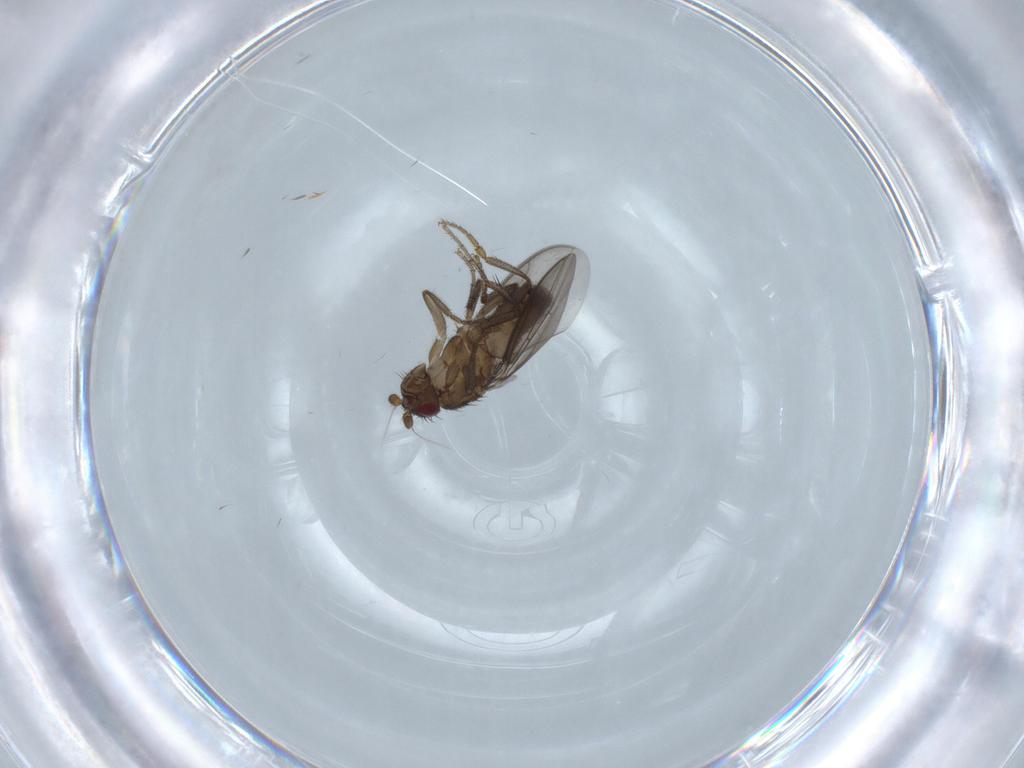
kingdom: Animalia
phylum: Arthropoda
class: Insecta
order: Diptera
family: Sphaeroceridae
